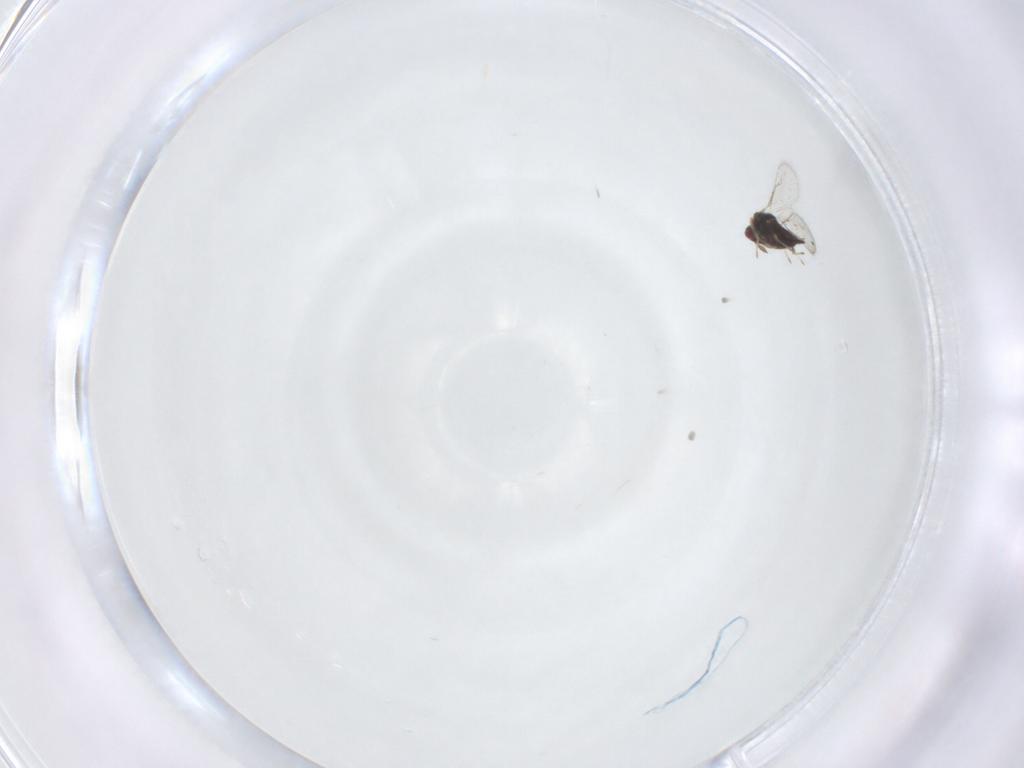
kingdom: Animalia
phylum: Arthropoda
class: Insecta
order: Hymenoptera
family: Eulophidae
